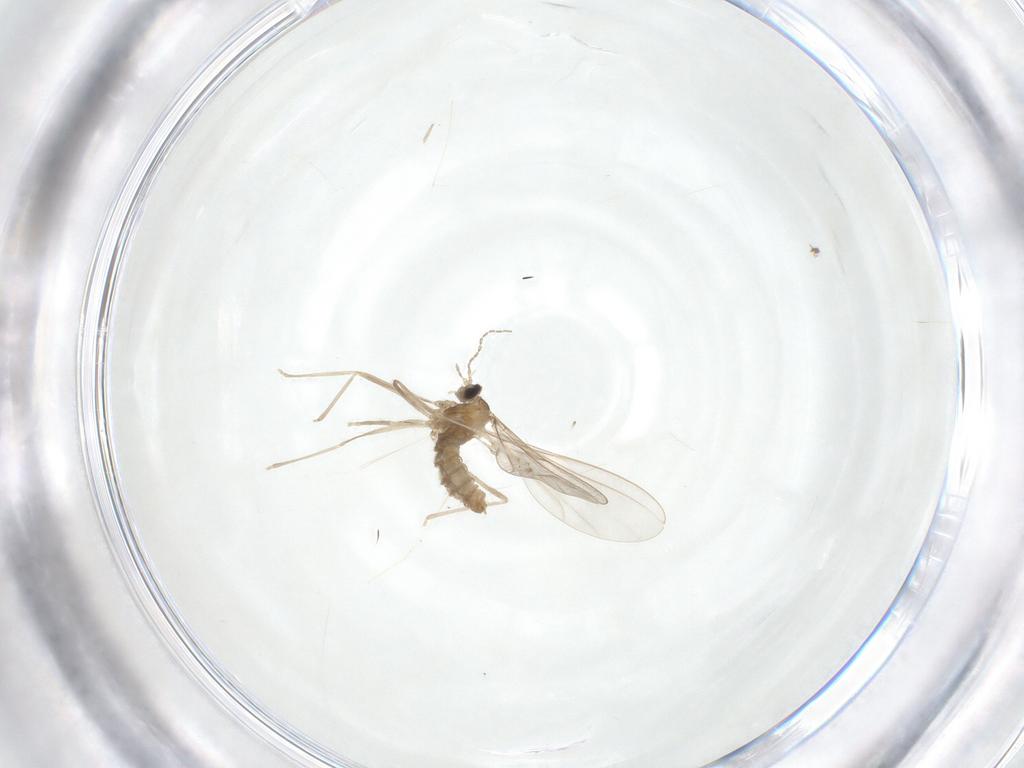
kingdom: Animalia
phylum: Arthropoda
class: Insecta
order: Diptera
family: Cecidomyiidae
